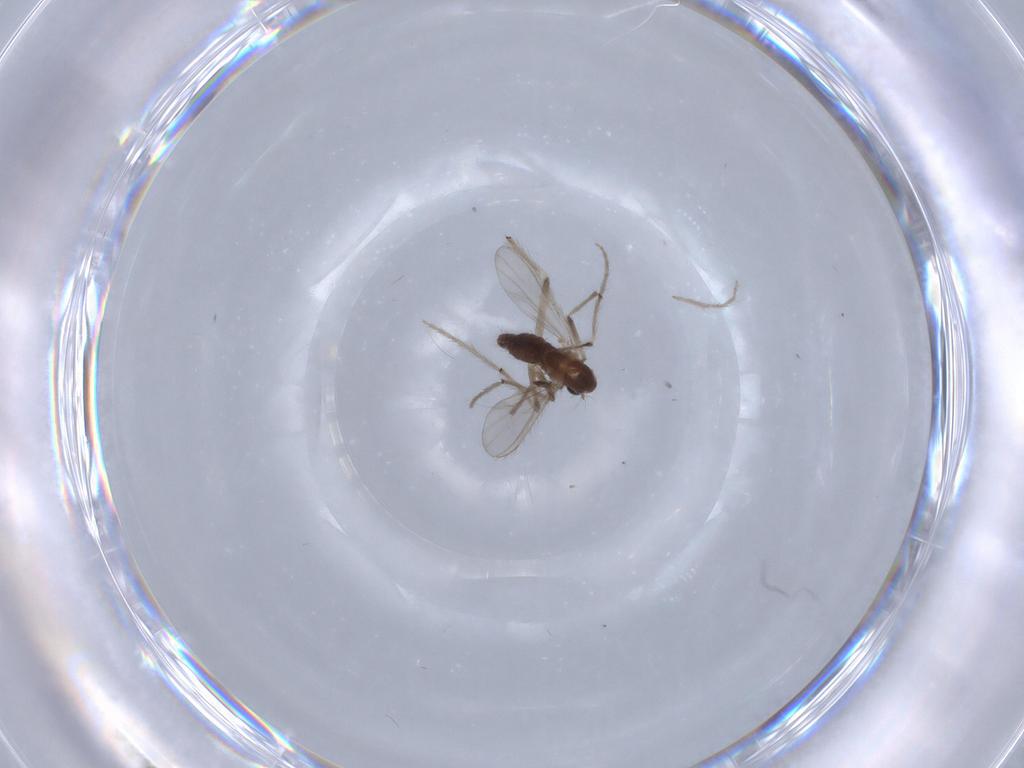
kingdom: Animalia
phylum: Arthropoda
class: Insecta
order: Diptera
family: Chironomidae
